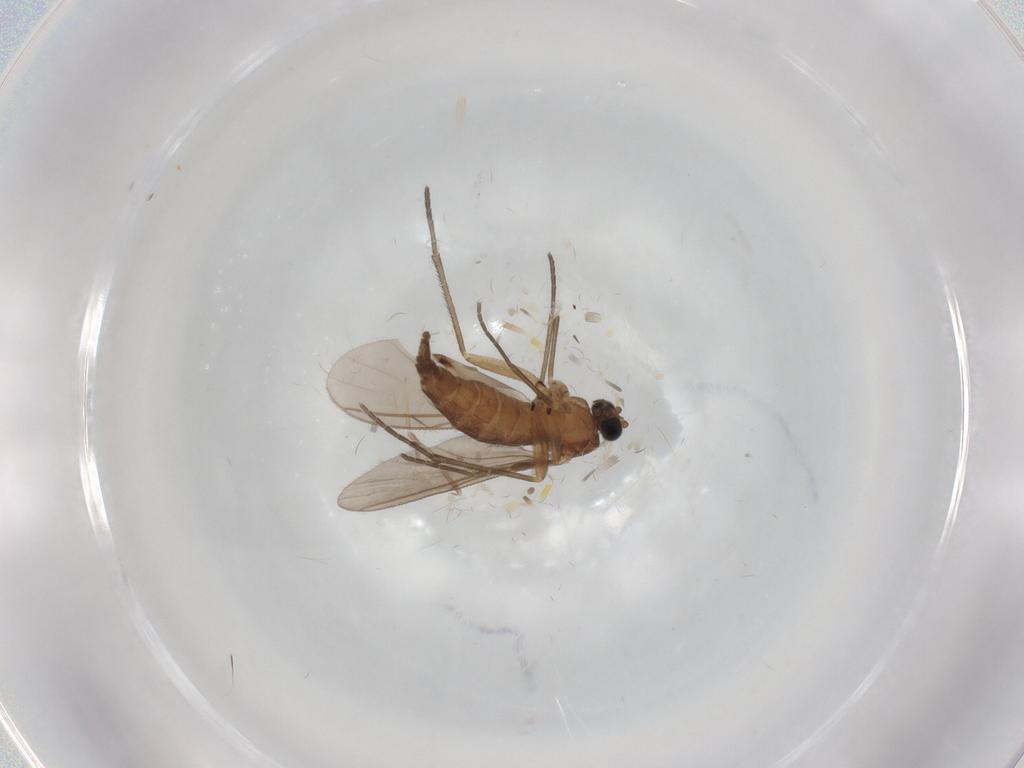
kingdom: Animalia
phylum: Arthropoda
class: Insecta
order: Diptera
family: Sciaridae
